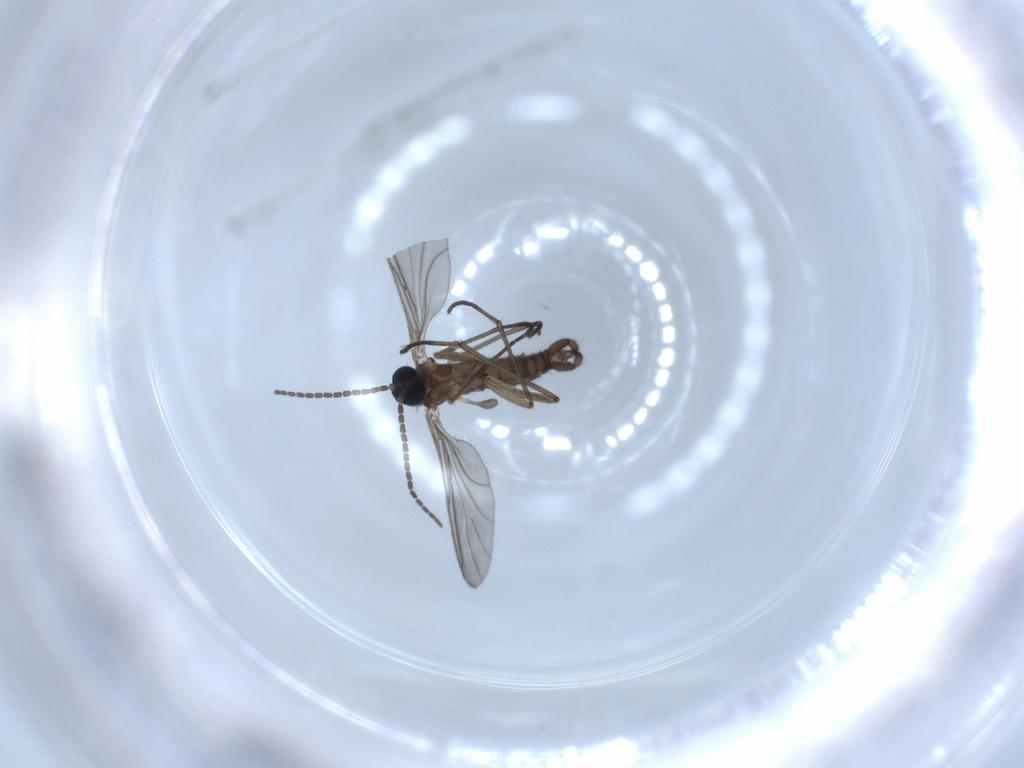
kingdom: Animalia
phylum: Arthropoda
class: Insecta
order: Diptera
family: Sciaridae
